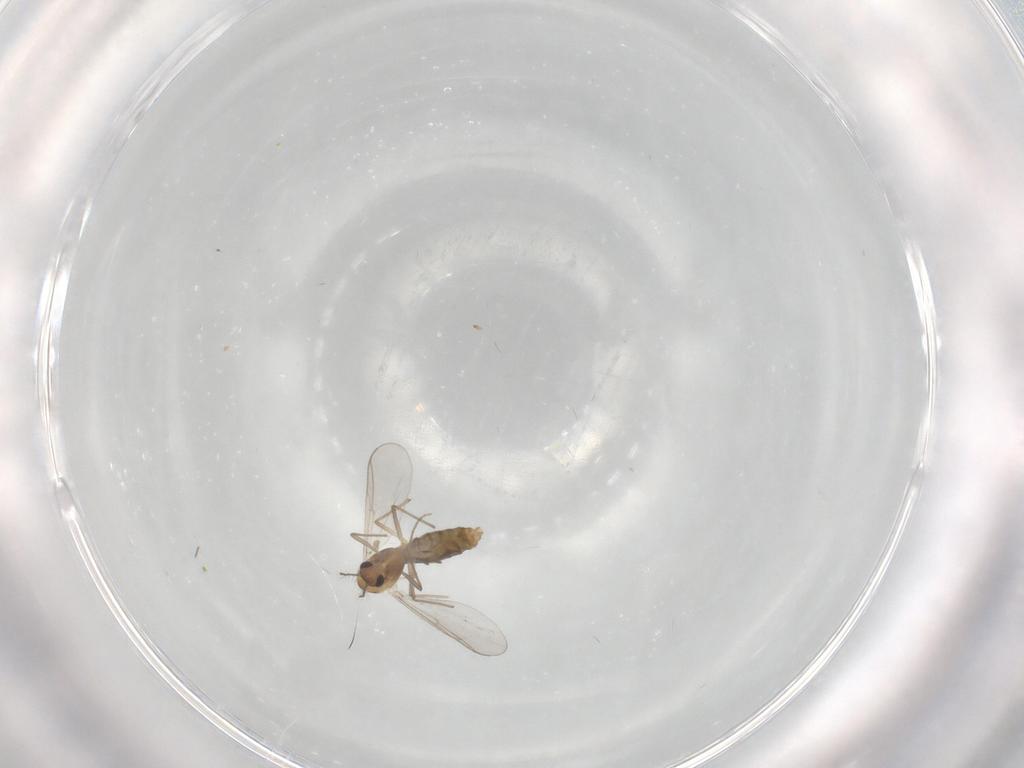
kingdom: Animalia
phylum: Arthropoda
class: Insecta
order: Diptera
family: Chironomidae
